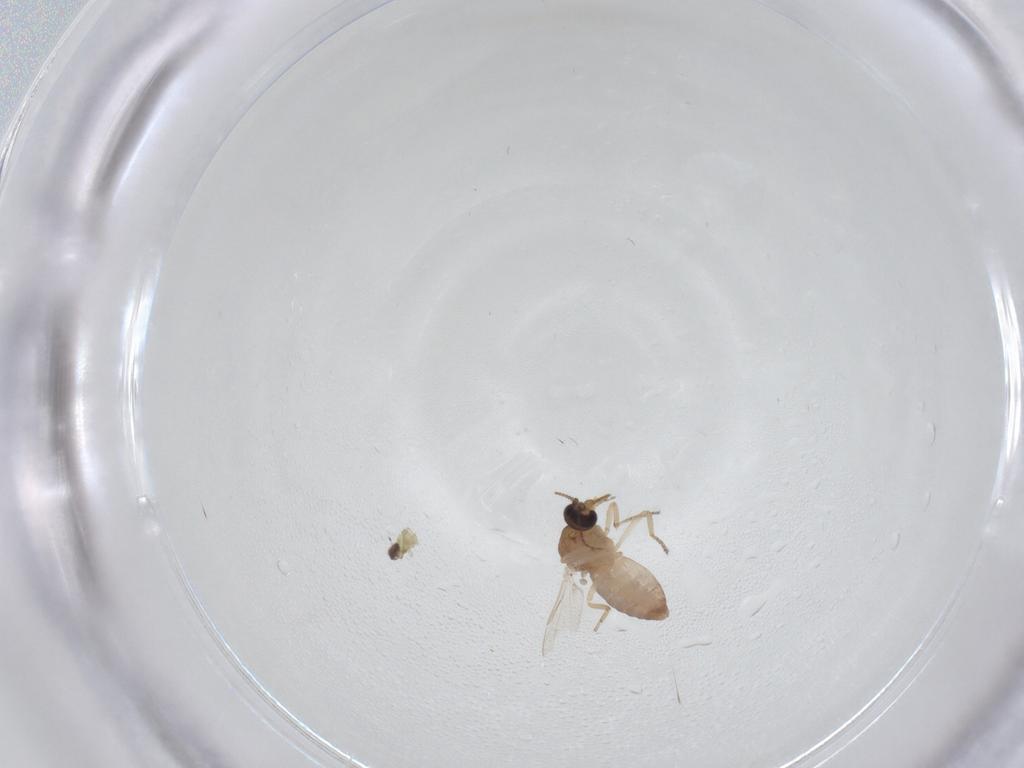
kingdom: Animalia
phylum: Arthropoda
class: Insecta
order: Diptera
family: Ceratopogonidae
